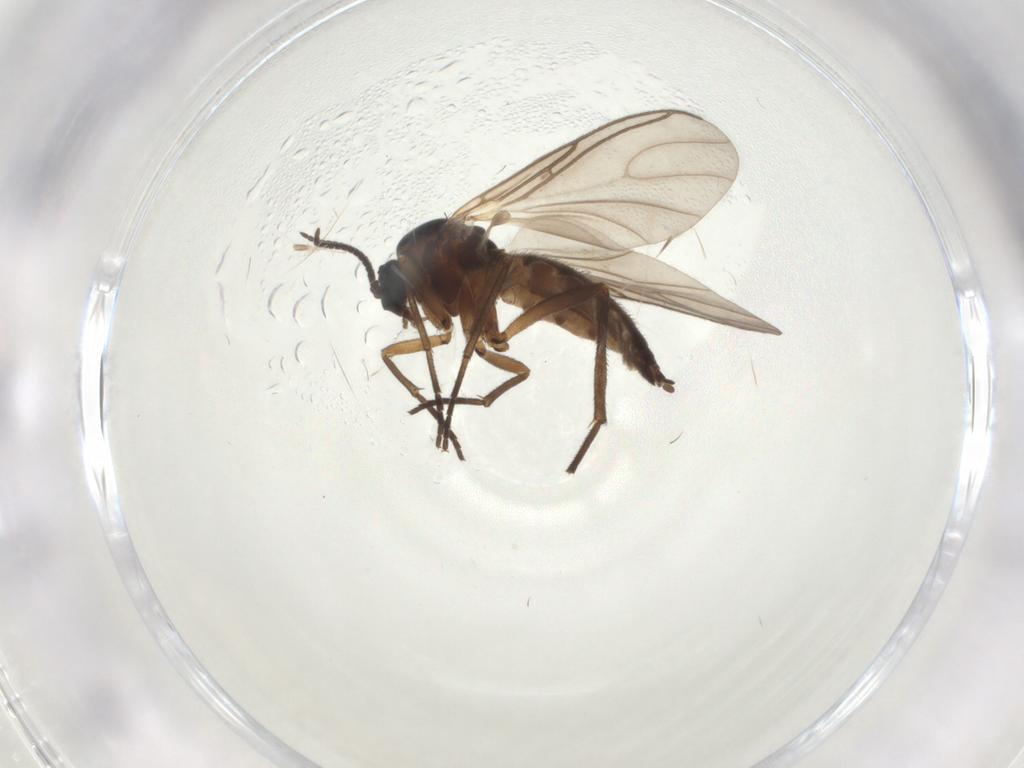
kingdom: Animalia
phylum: Arthropoda
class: Insecta
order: Diptera
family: Sciaridae
